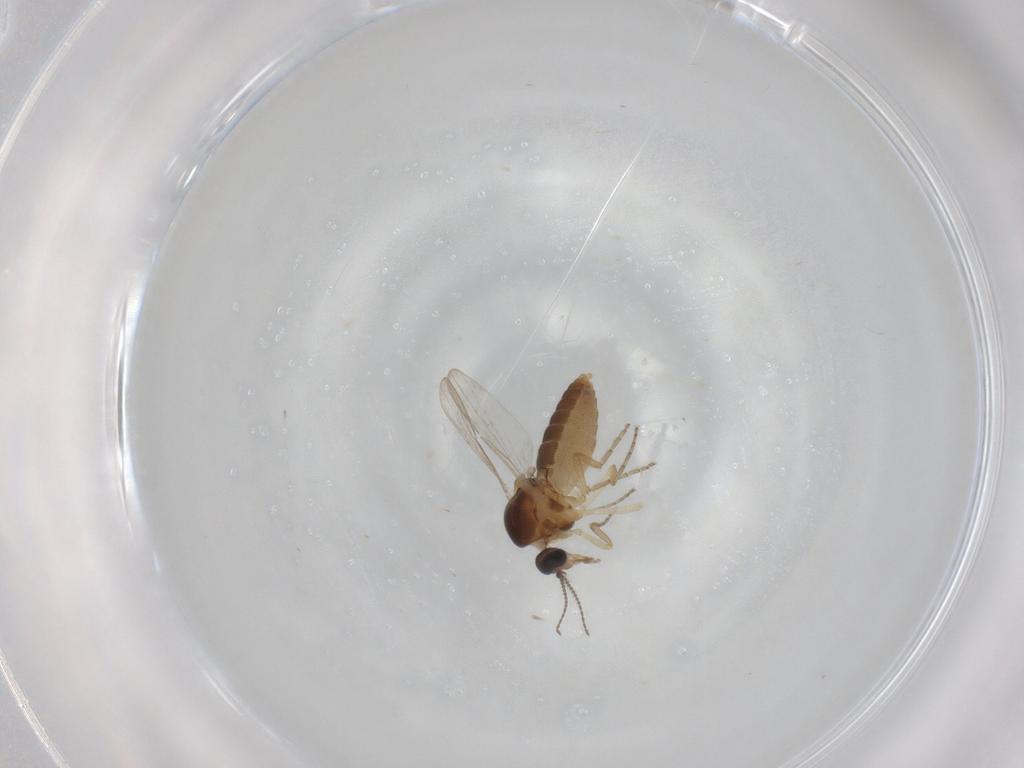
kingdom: Animalia
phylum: Arthropoda
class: Insecta
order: Diptera
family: Ceratopogonidae
